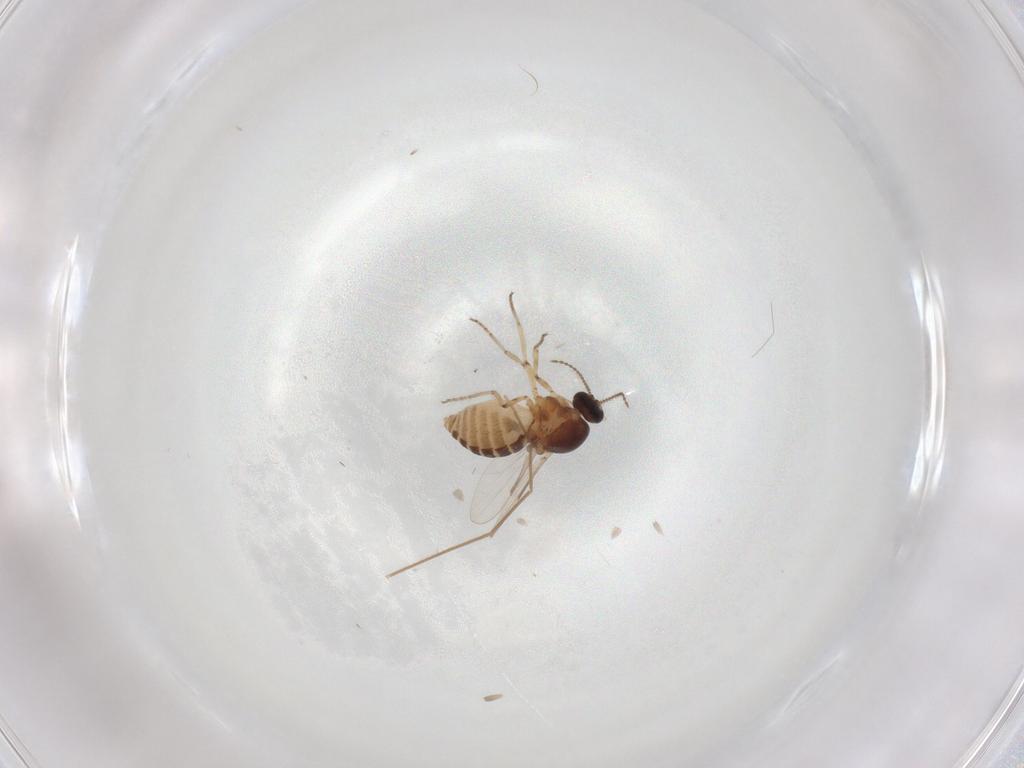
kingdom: Animalia
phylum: Arthropoda
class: Insecta
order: Diptera
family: Ceratopogonidae
